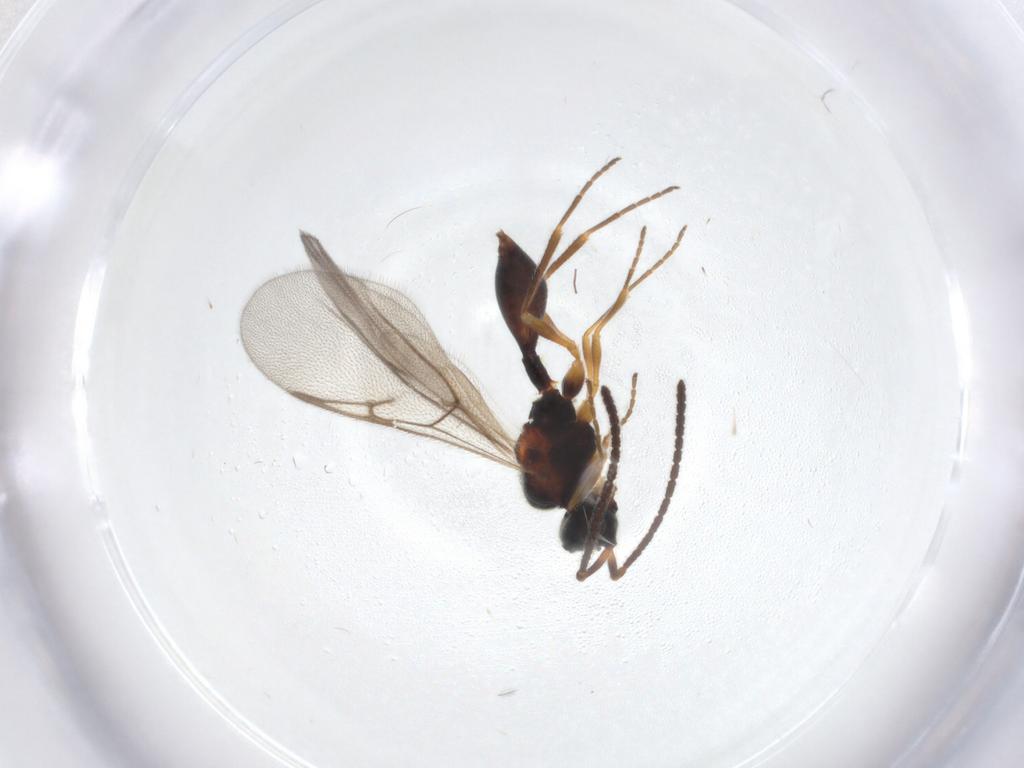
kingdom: Animalia
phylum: Arthropoda
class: Insecta
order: Hymenoptera
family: Diapriidae
